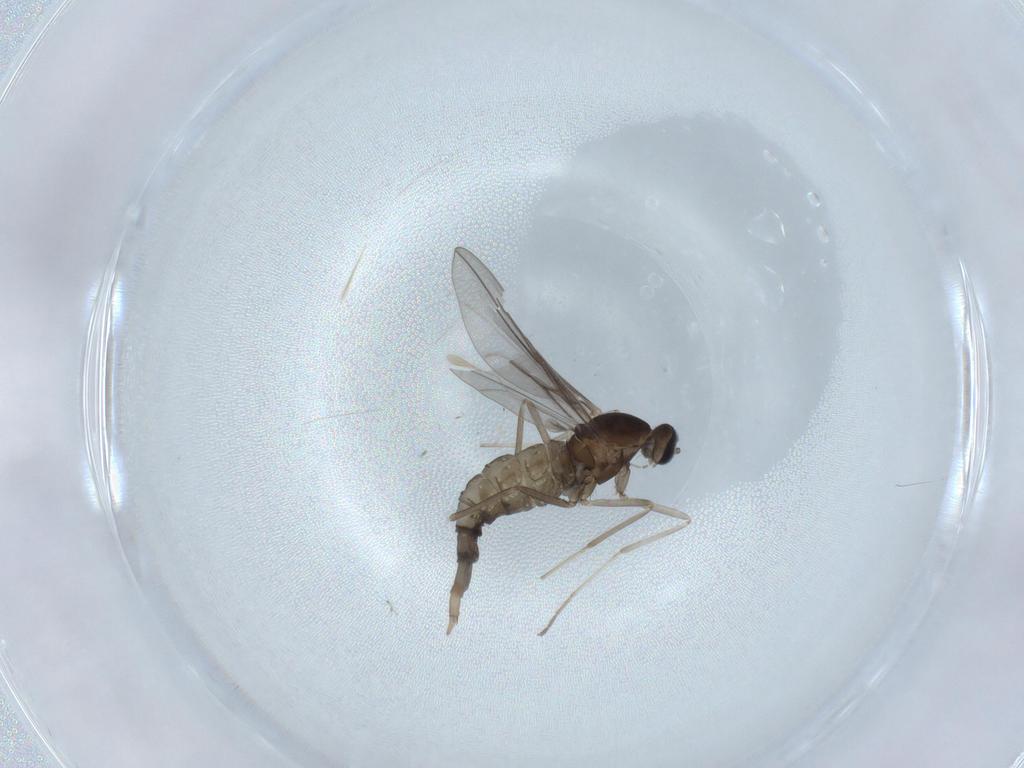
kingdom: Animalia
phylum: Arthropoda
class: Insecta
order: Diptera
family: Cecidomyiidae
